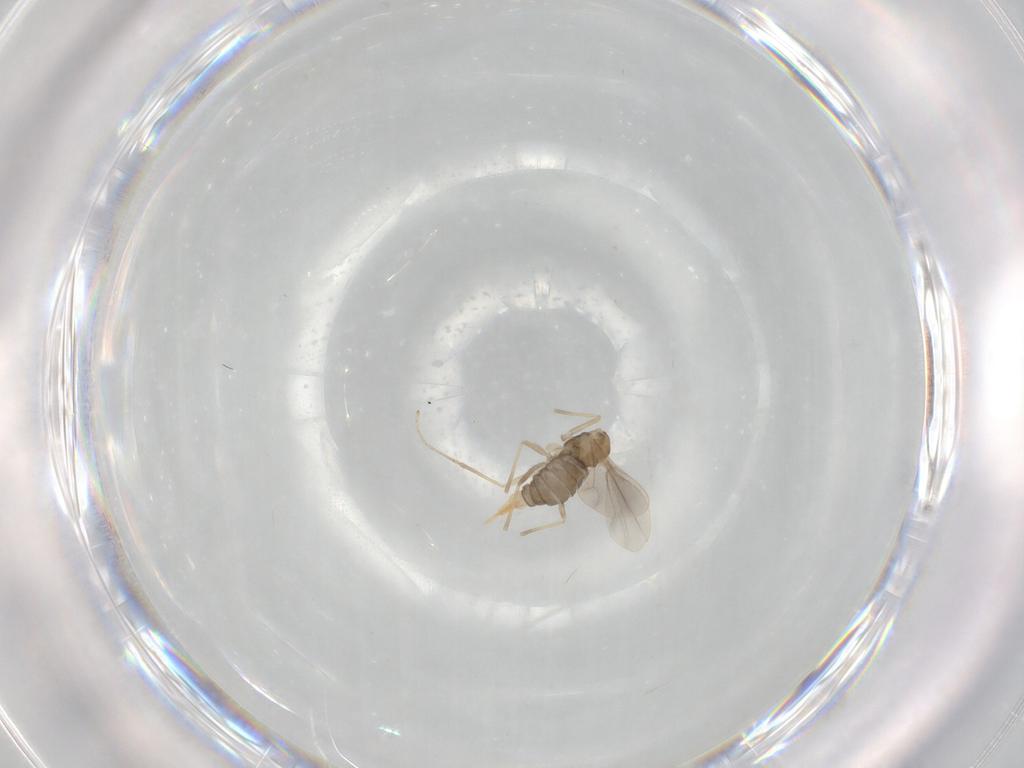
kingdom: Animalia
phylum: Arthropoda
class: Insecta
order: Diptera
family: Cecidomyiidae
